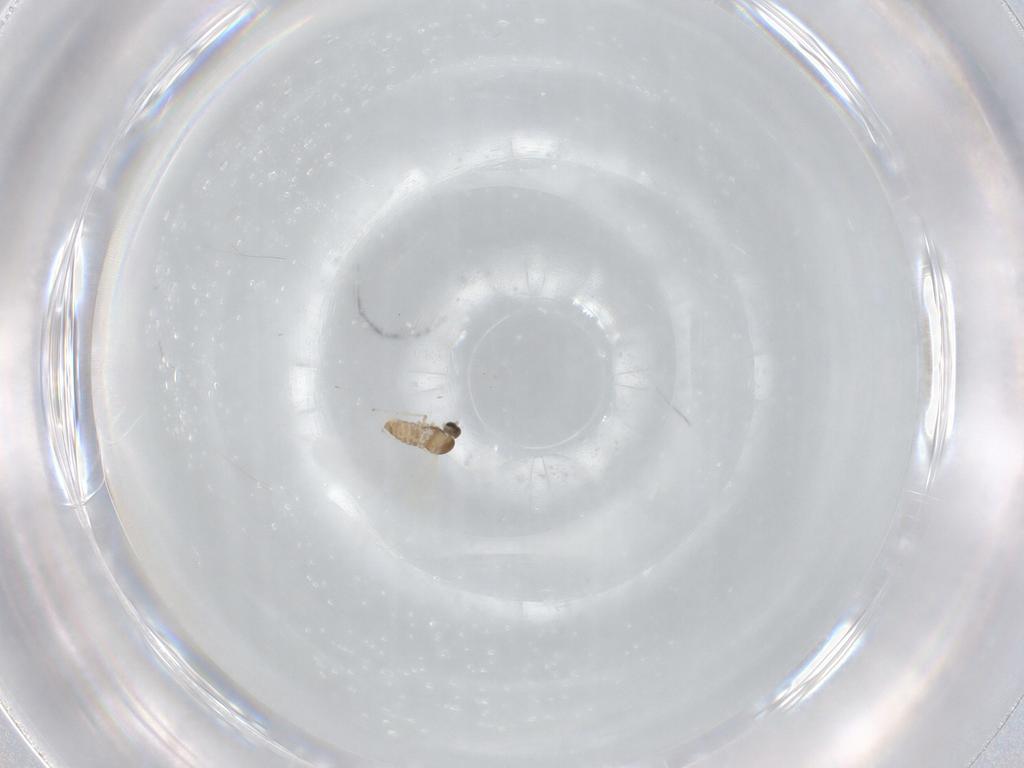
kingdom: Animalia
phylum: Arthropoda
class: Insecta
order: Diptera
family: Cecidomyiidae
